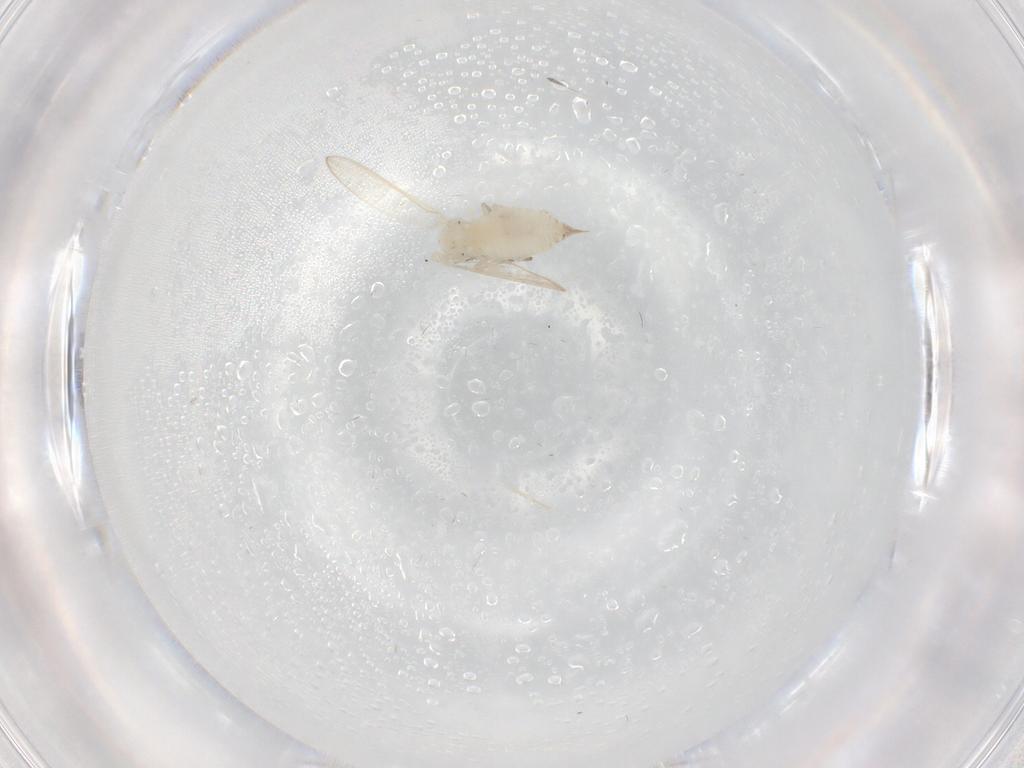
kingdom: Animalia
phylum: Arthropoda
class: Insecta
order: Diptera
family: Psychodidae
